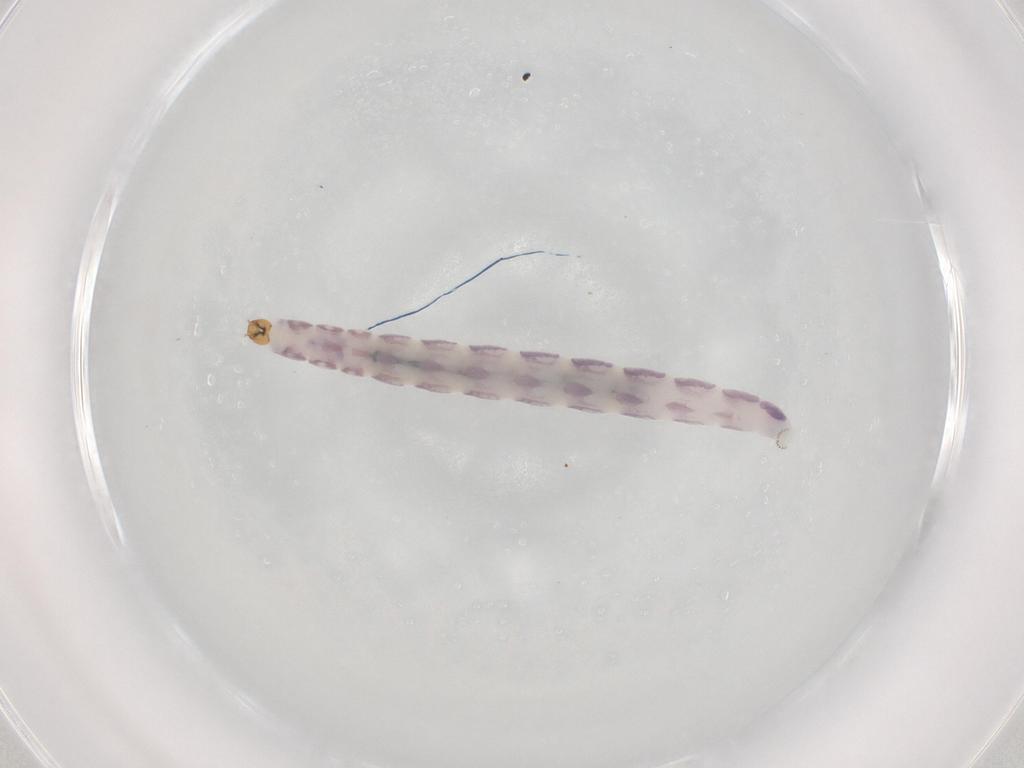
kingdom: Animalia
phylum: Arthropoda
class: Insecta
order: Diptera
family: Chironomidae
